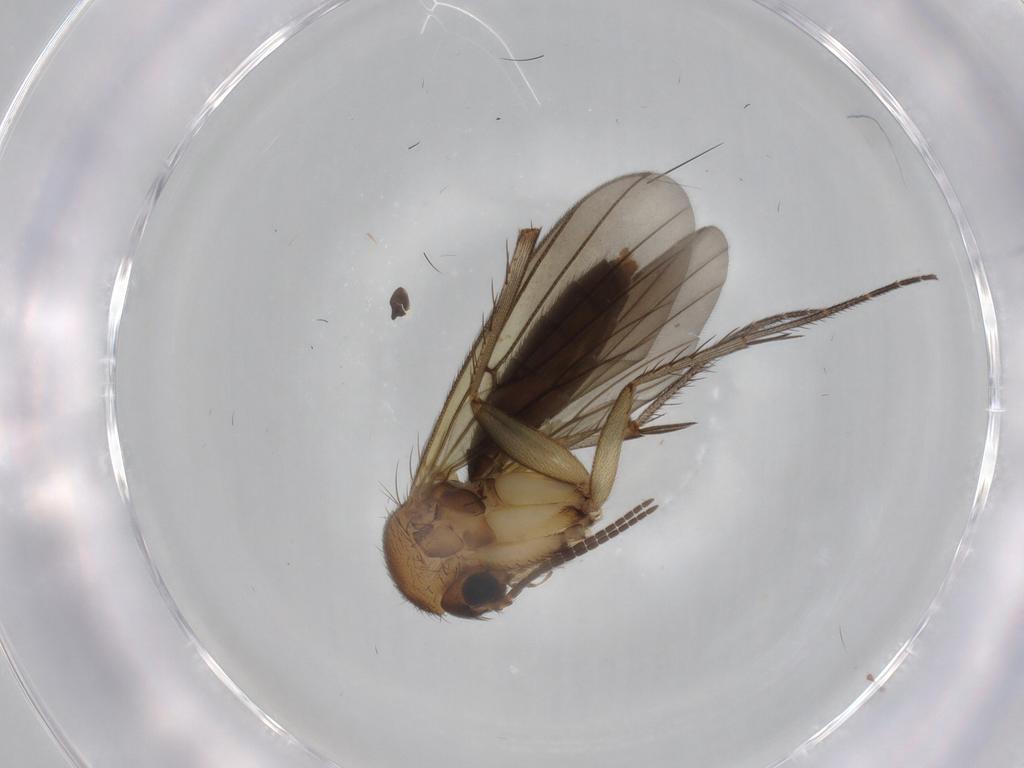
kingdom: Animalia
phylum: Arthropoda
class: Insecta
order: Diptera
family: Mycetophilidae
